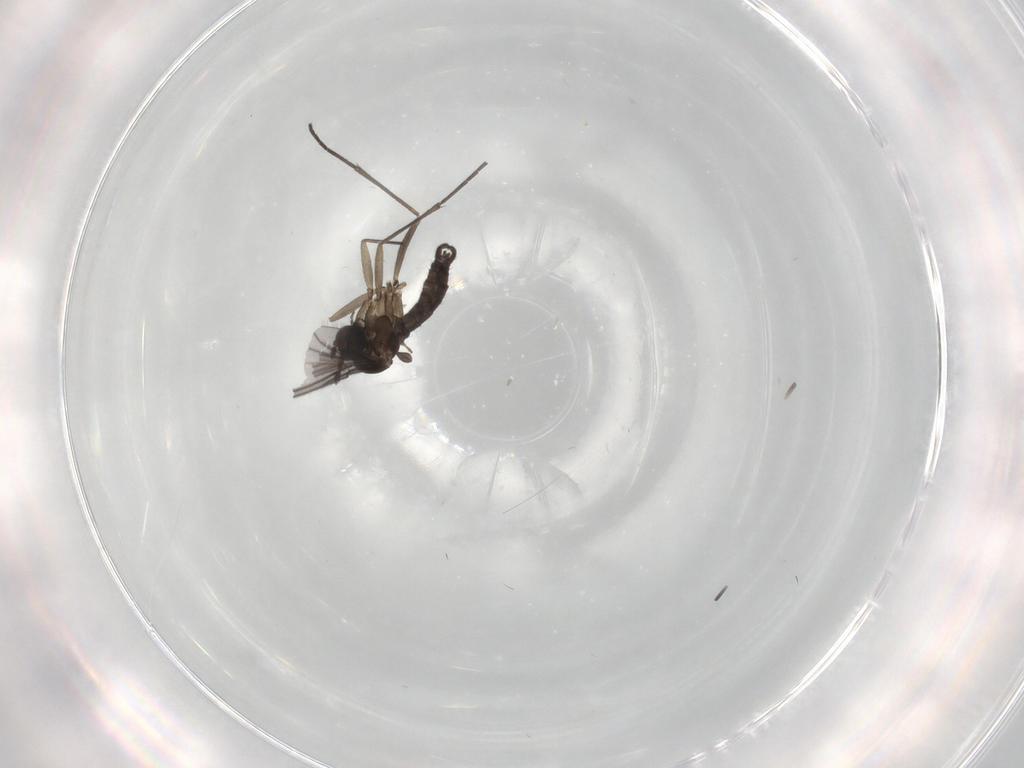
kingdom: Animalia
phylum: Arthropoda
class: Insecta
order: Diptera
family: Sciaridae
